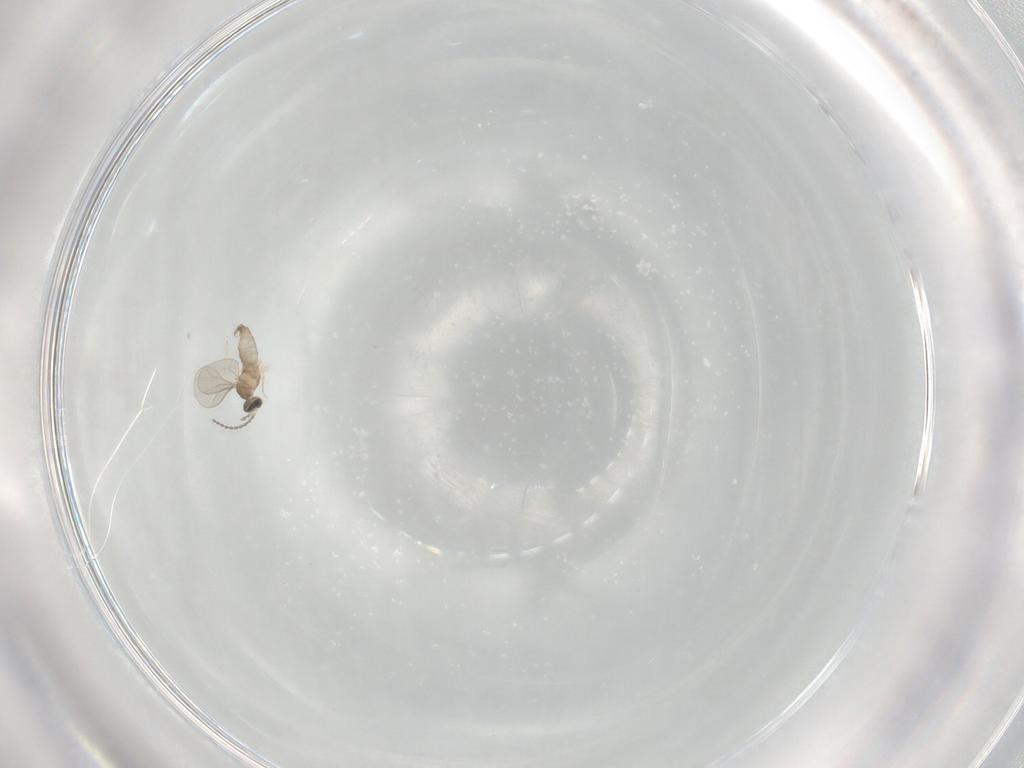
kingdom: Animalia
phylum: Arthropoda
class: Insecta
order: Diptera
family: Cecidomyiidae
